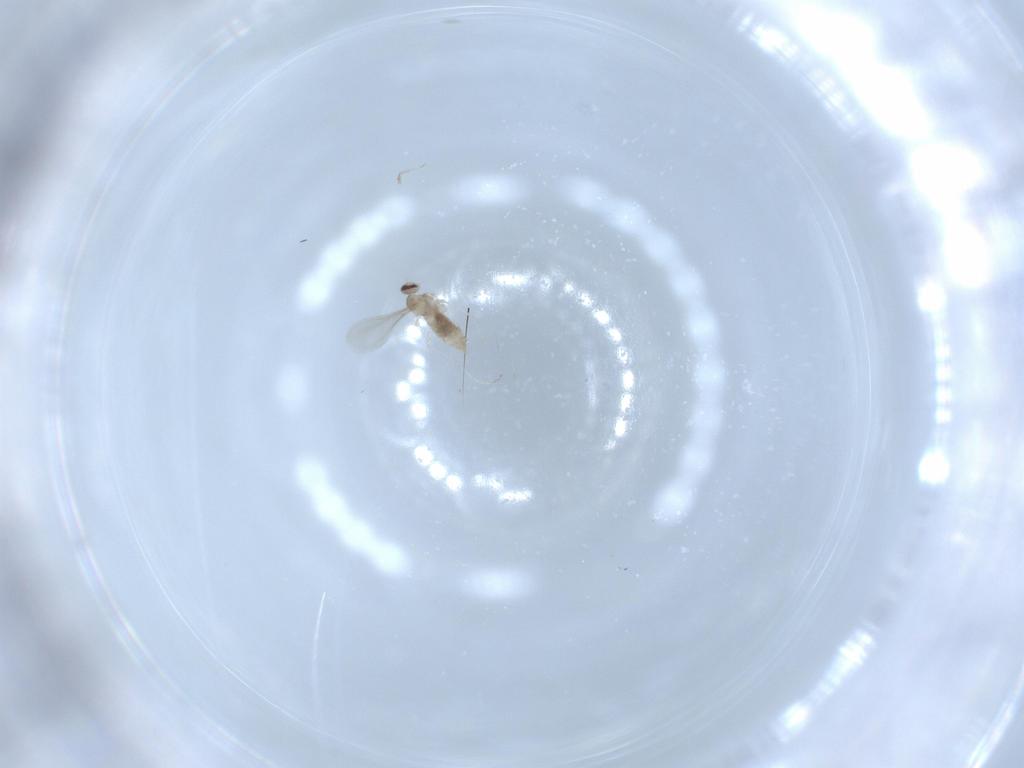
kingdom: Animalia
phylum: Arthropoda
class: Insecta
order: Diptera
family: Cecidomyiidae
